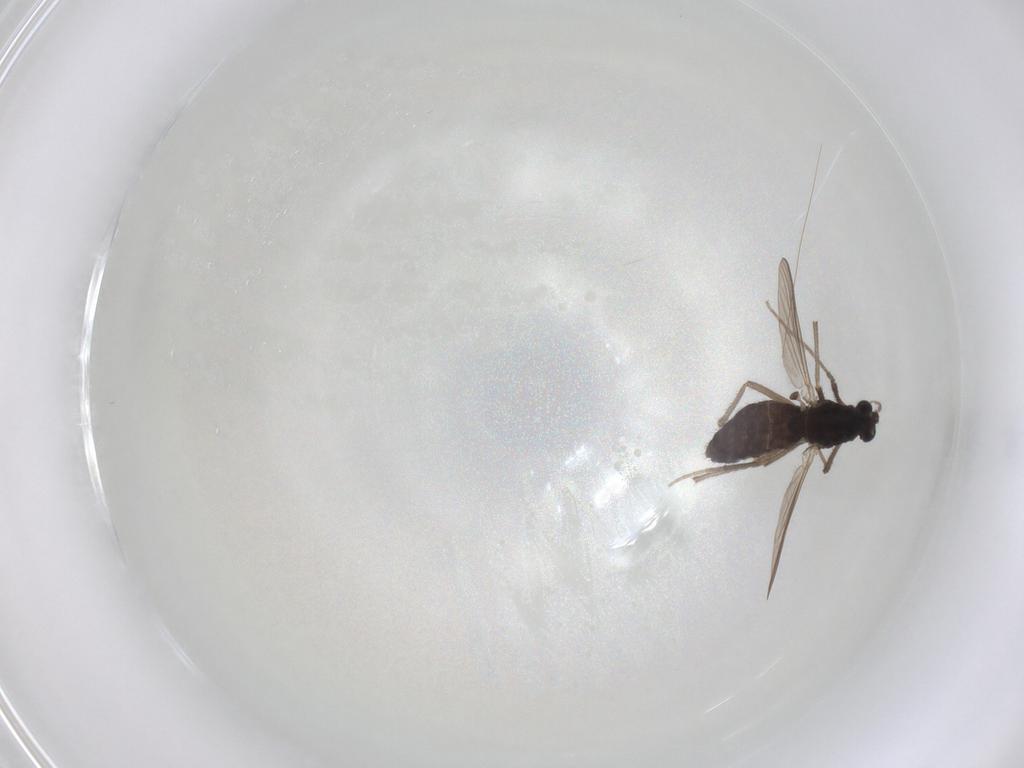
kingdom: Animalia
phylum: Arthropoda
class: Insecta
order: Diptera
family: Chironomidae
